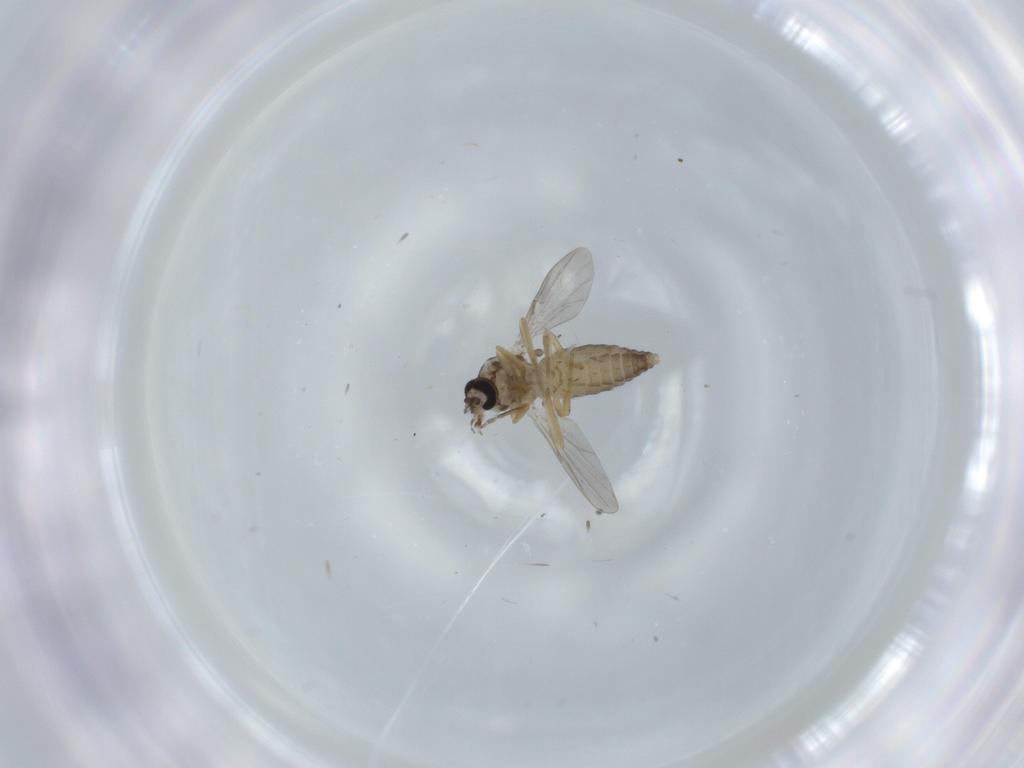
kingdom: Animalia
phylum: Arthropoda
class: Insecta
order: Diptera
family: Ceratopogonidae
